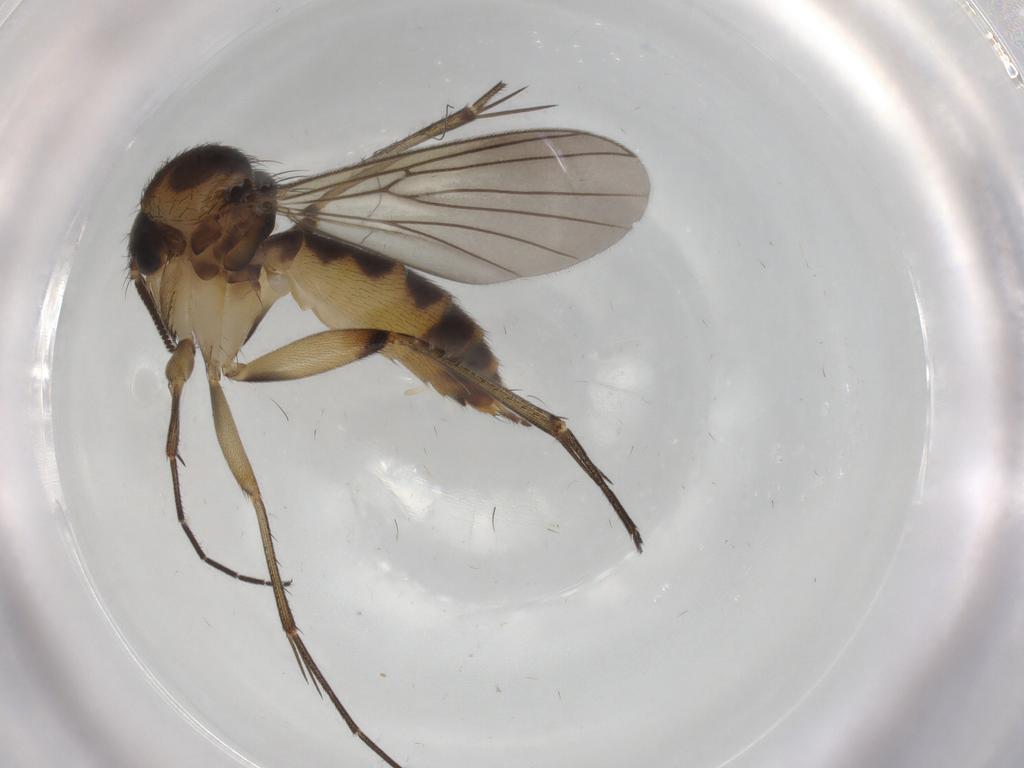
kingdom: Animalia
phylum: Arthropoda
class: Insecta
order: Diptera
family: Mycetophilidae
